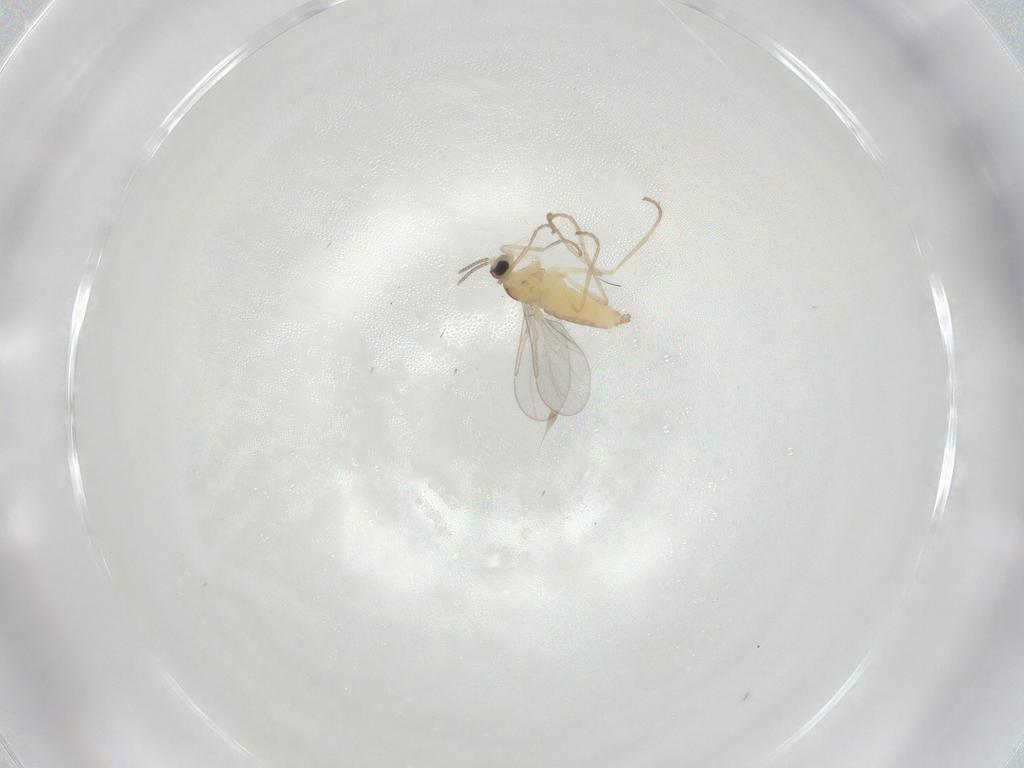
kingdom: Animalia
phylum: Arthropoda
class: Insecta
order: Diptera
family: Cecidomyiidae
